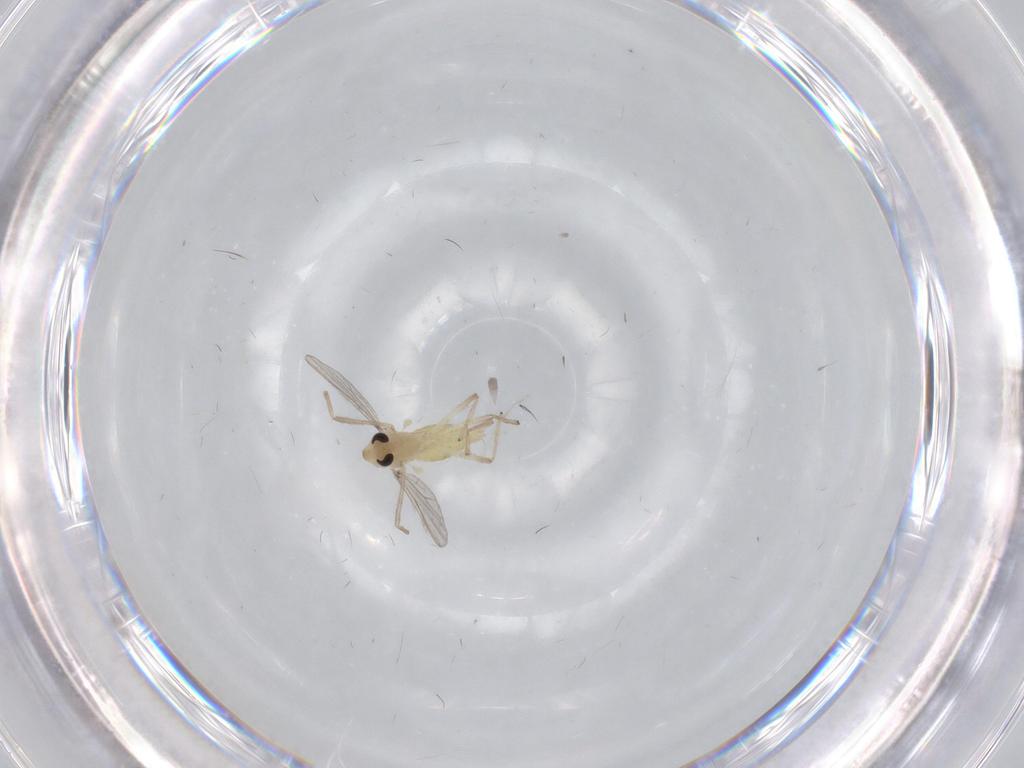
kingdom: Animalia
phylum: Arthropoda
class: Insecta
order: Diptera
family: Chironomidae
